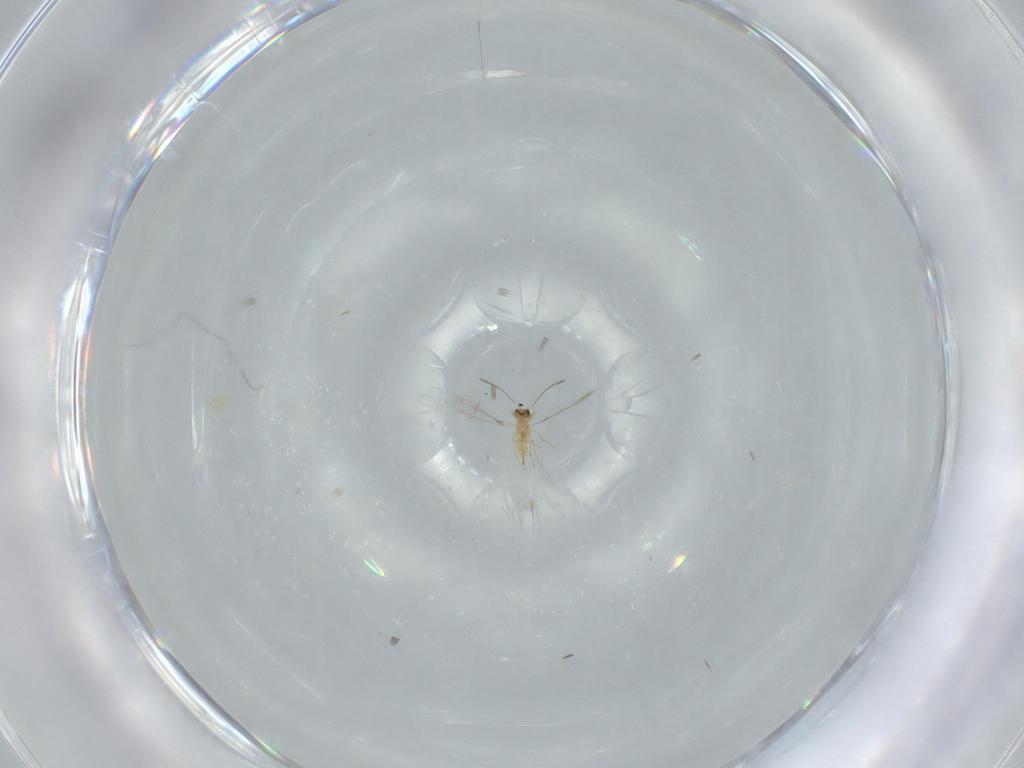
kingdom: Animalia
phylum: Arthropoda
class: Insecta
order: Hymenoptera
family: Mymaridae
